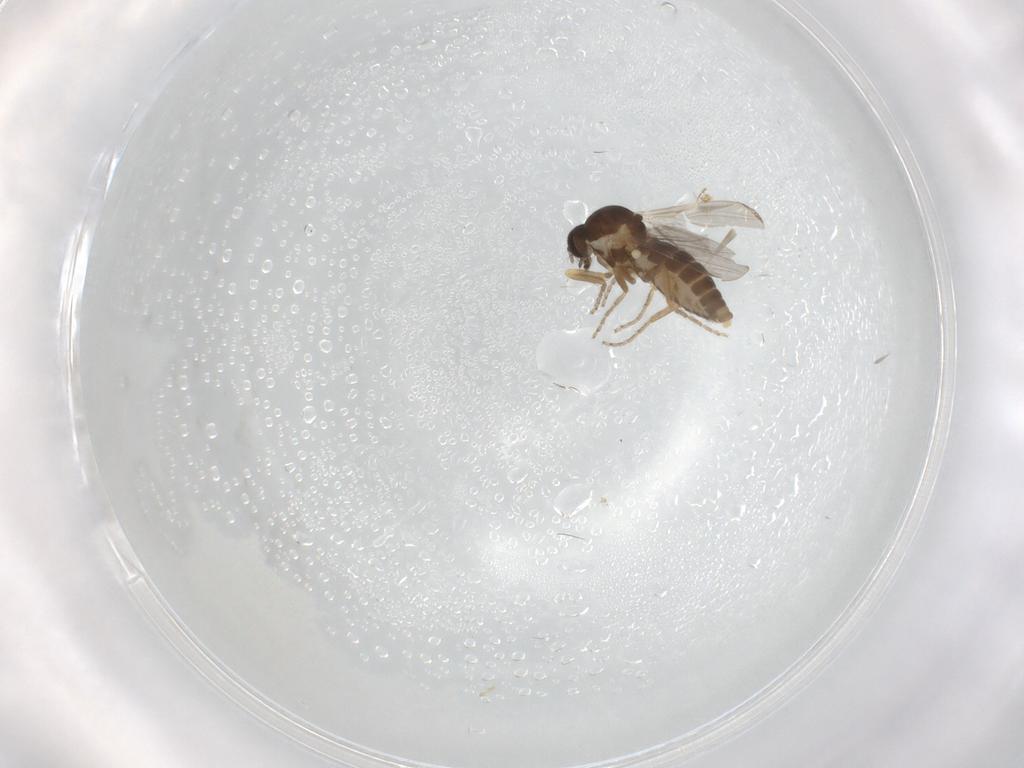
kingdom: Animalia
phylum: Arthropoda
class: Insecta
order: Diptera
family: Ceratopogonidae
